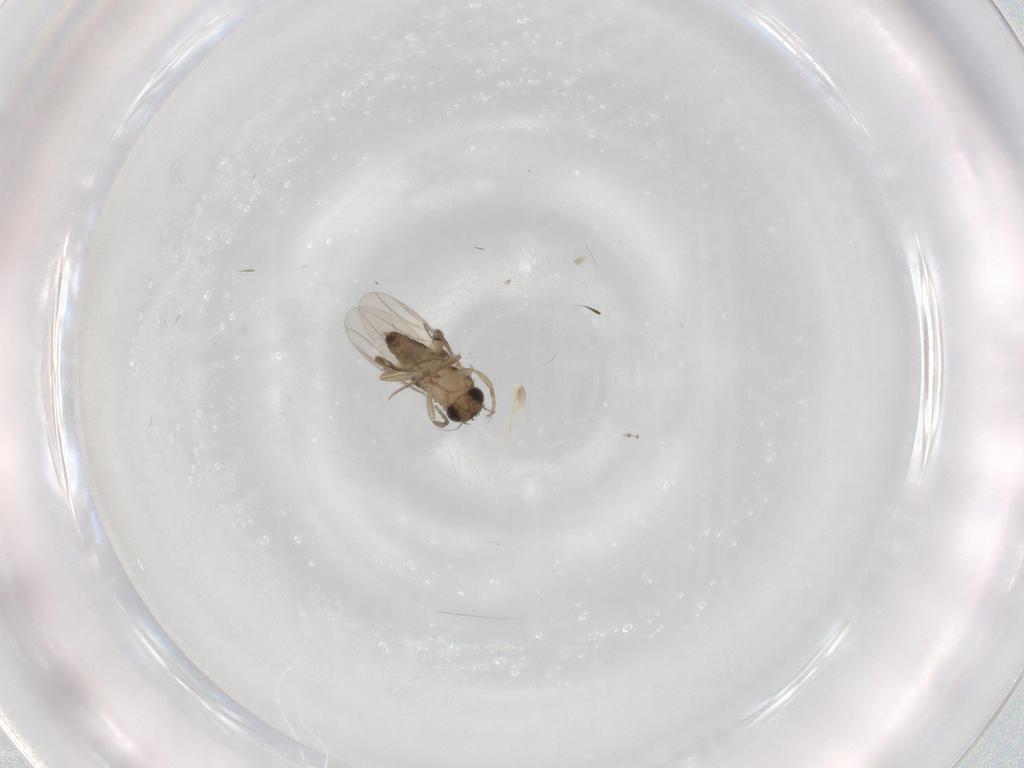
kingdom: Animalia
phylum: Arthropoda
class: Insecta
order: Diptera
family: Phoridae
